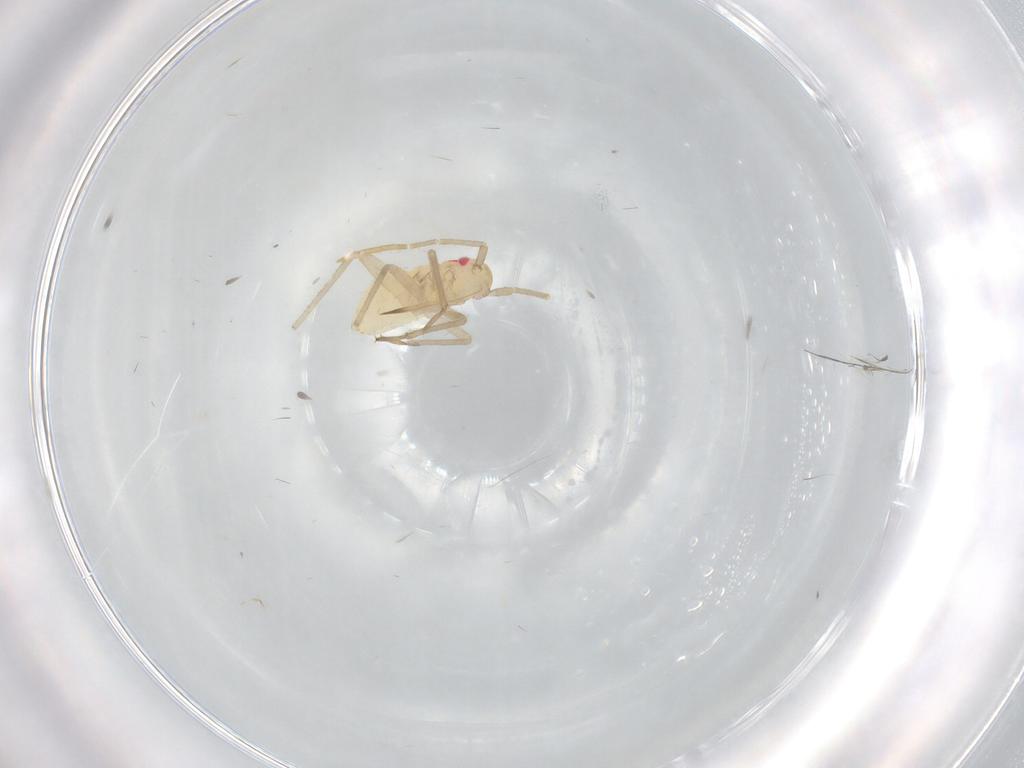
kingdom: Animalia
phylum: Arthropoda
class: Insecta
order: Hemiptera
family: Miridae
